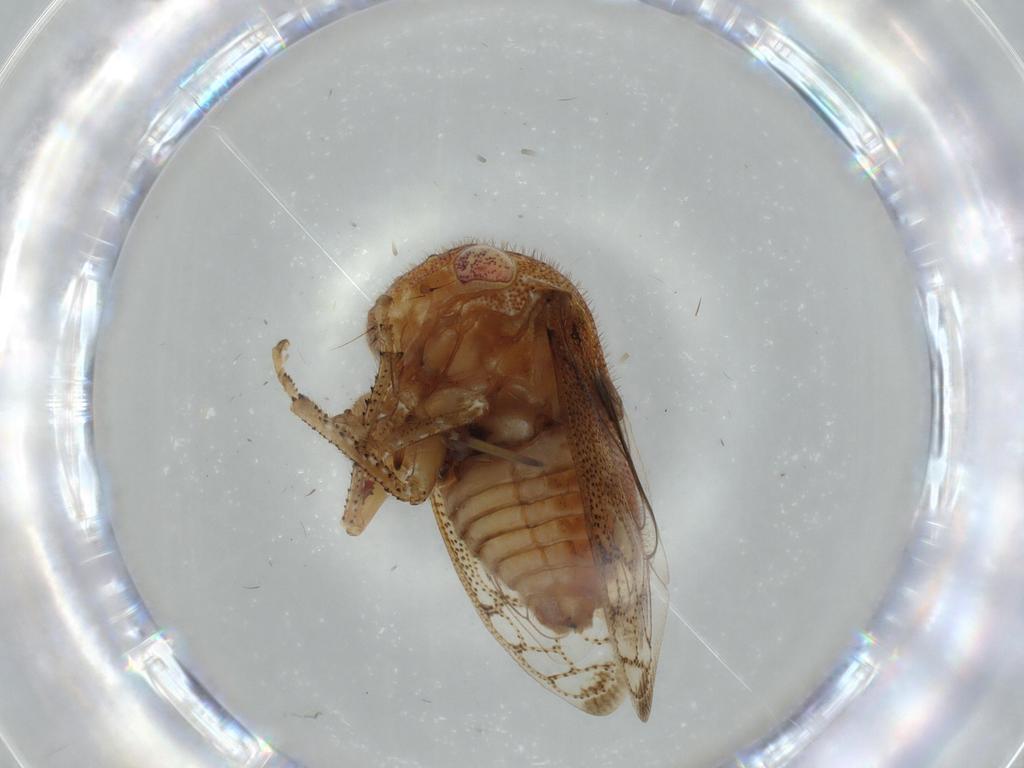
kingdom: Animalia
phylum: Arthropoda
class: Insecta
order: Hemiptera
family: Membracidae
